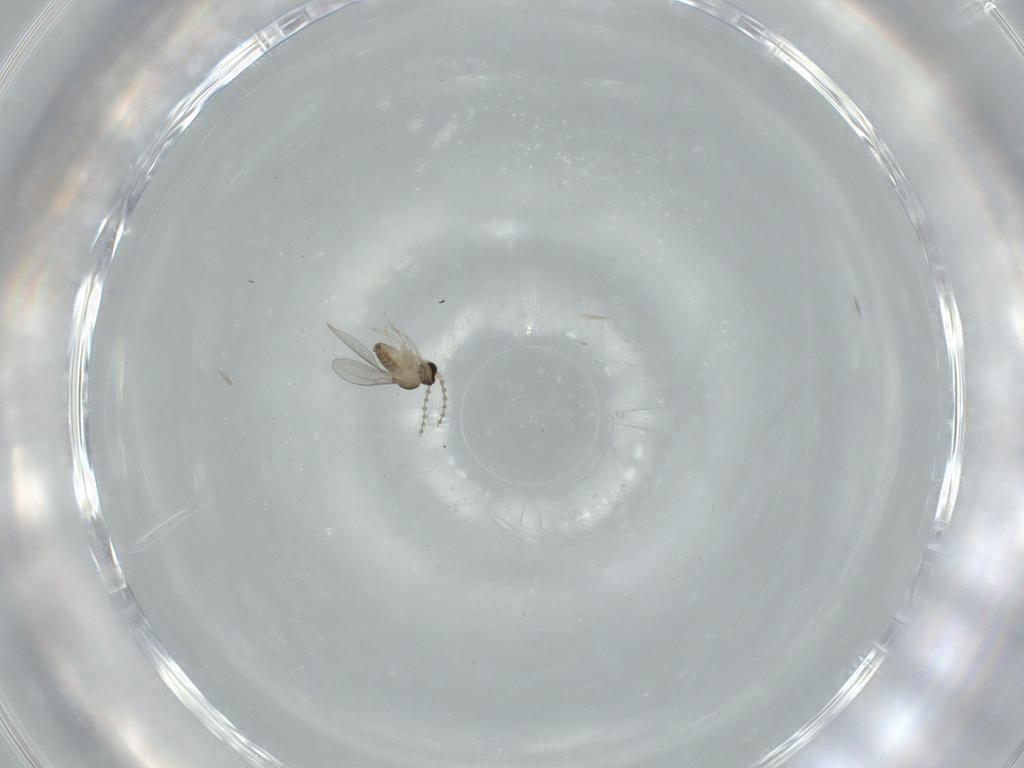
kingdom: Animalia
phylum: Arthropoda
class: Insecta
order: Diptera
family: Cecidomyiidae
